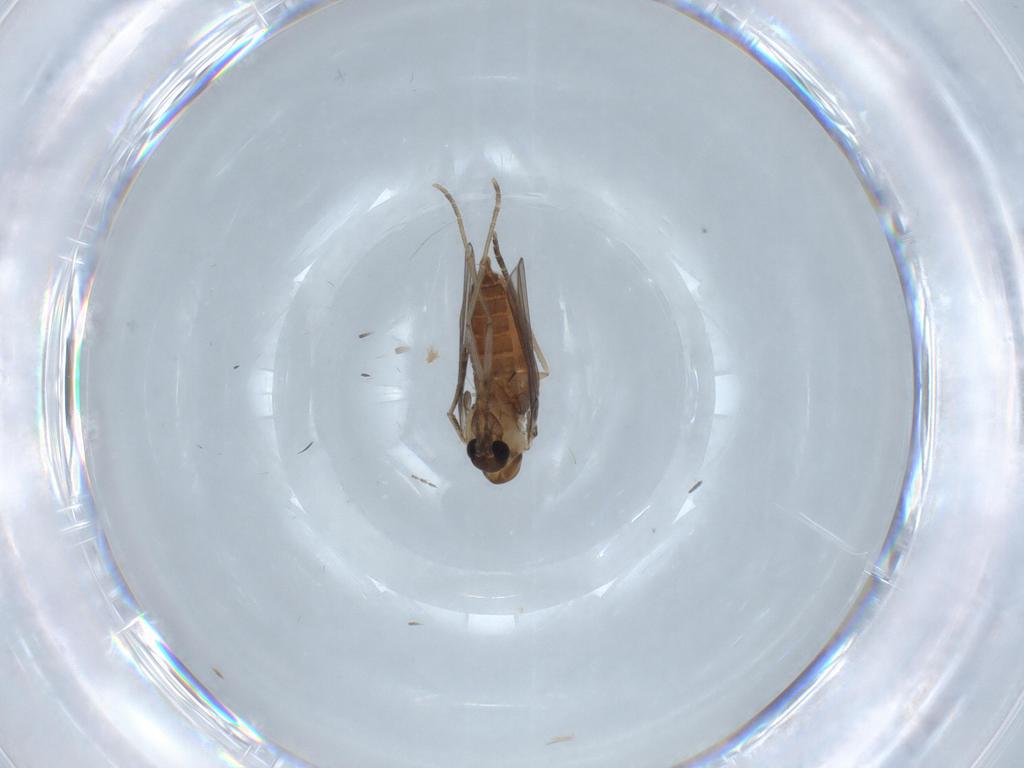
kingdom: Animalia
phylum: Arthropoda
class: Insecta
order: Diptera
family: Limoniidae
